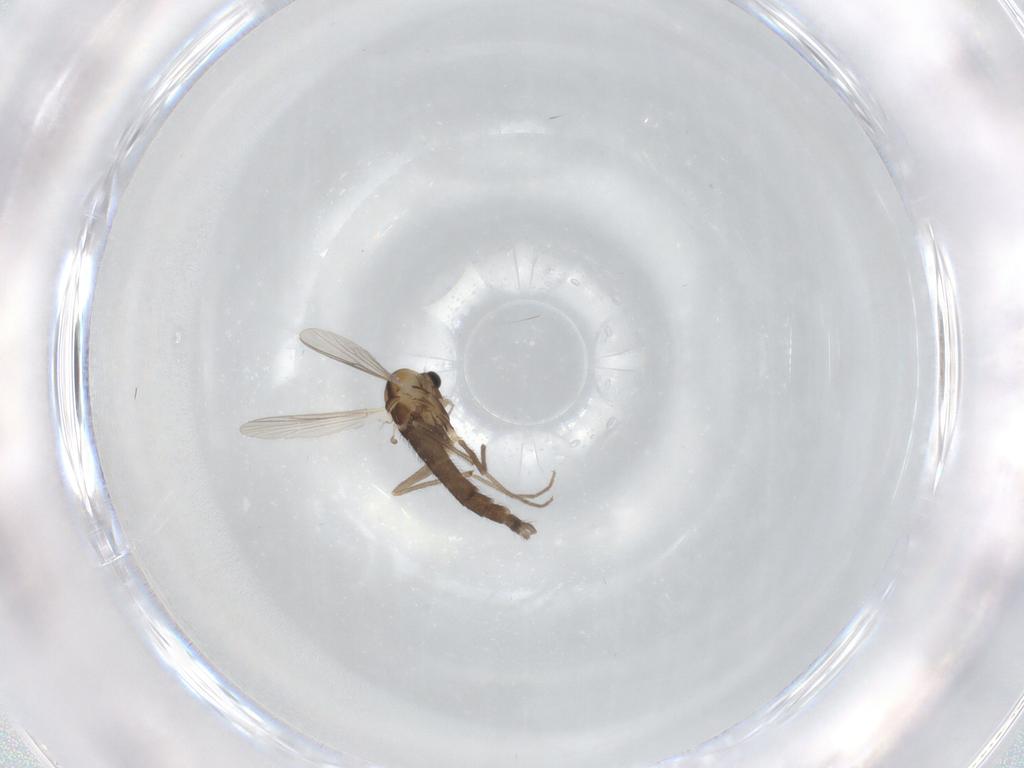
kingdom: Animalia
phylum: Arthropoda
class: Insecta
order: Diptera
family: Chironomidae
